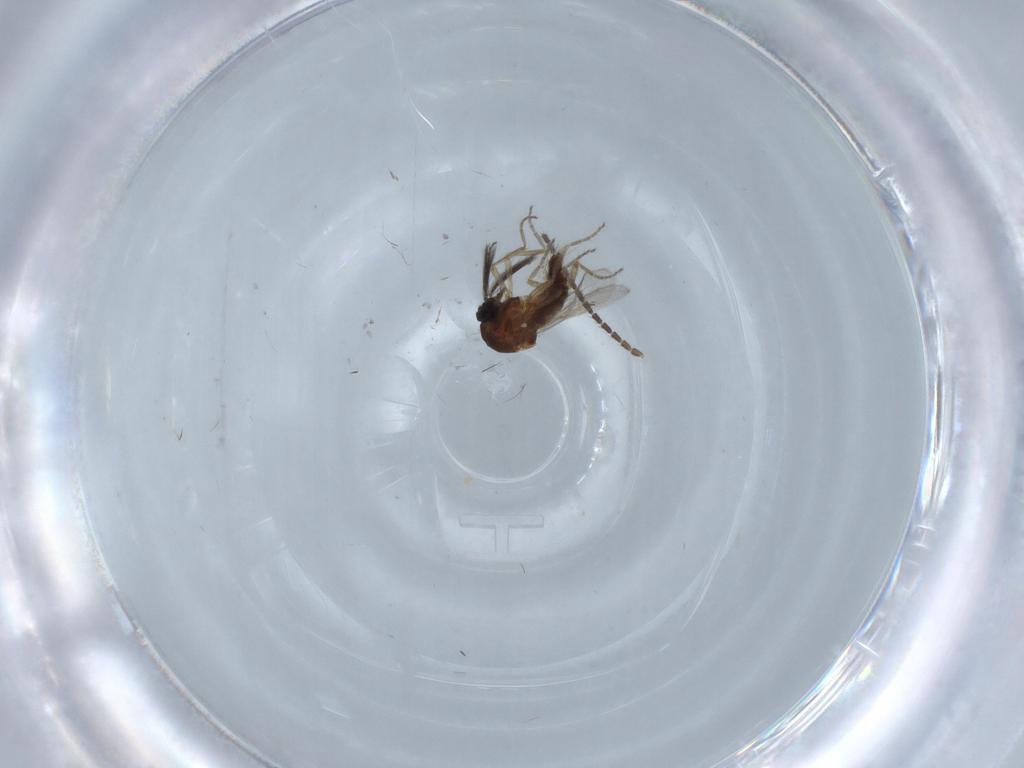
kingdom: Animalia
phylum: Arthropoda
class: Insecta
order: Diptera
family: Ceratopogonidae
